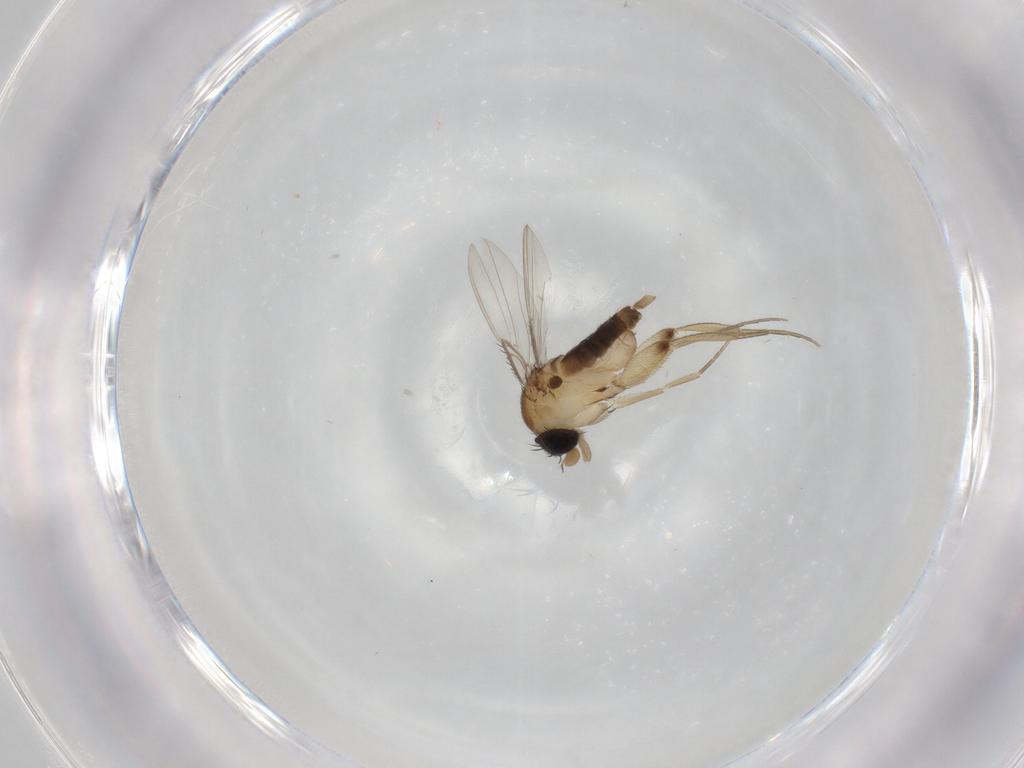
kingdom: Animalia
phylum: Arthropoda
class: Insecta
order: Diptera
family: Phoridae
